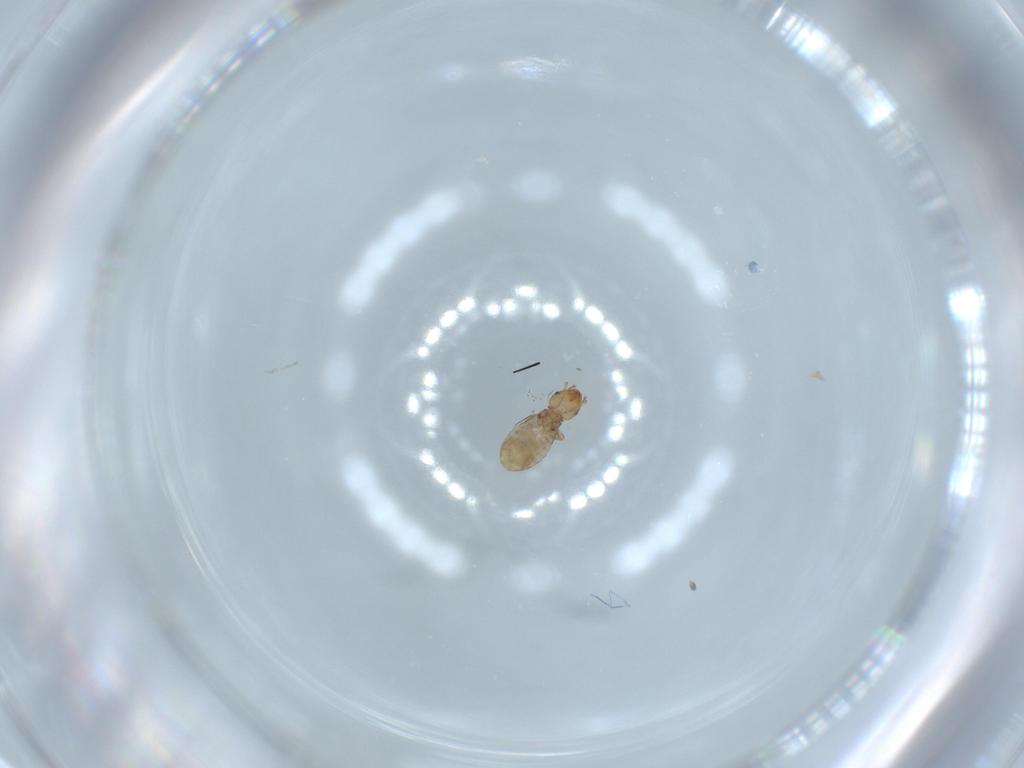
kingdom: Animalia
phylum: Arthropoda
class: Insecta
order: Psocodea
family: Liposcelididae
